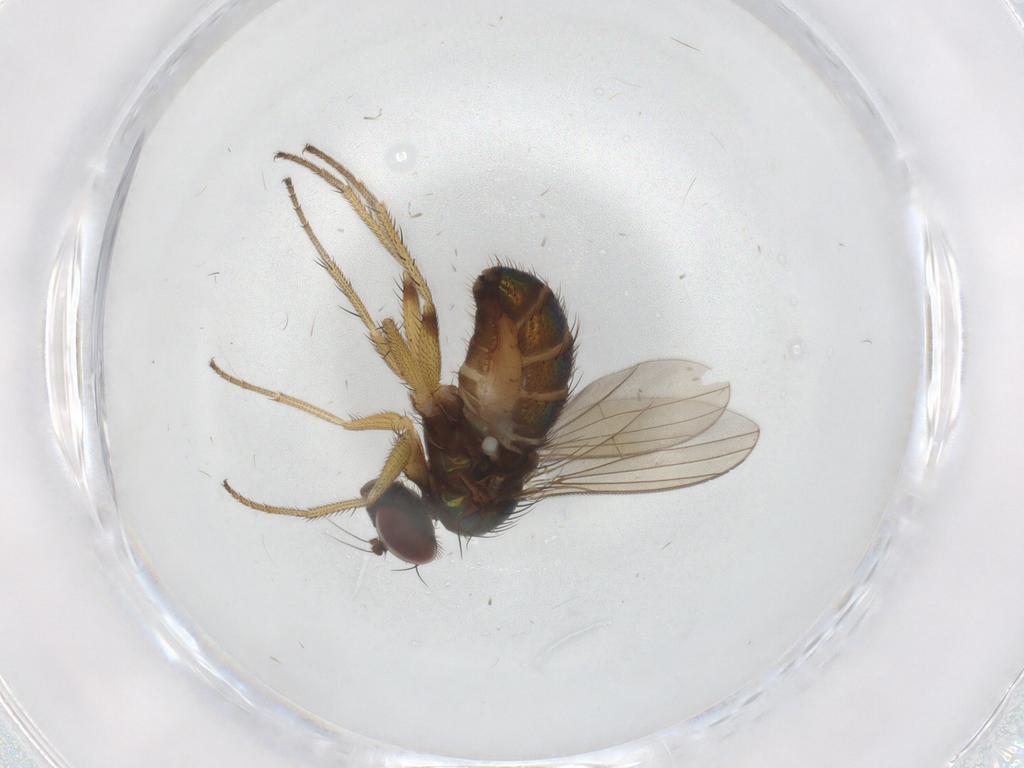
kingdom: Animalia
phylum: Arthropoda
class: Insecta
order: Diptera
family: Dolichopodidae
